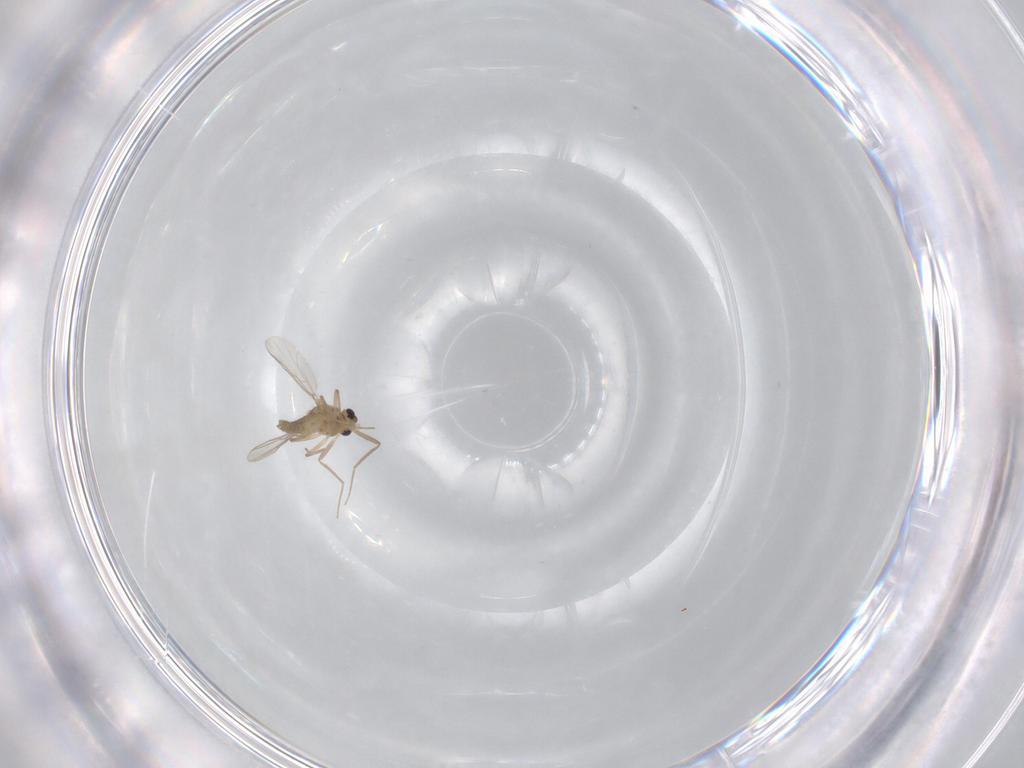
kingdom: Animalia
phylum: Arthropoda
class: Insecta
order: Diptera
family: Chironomidae
